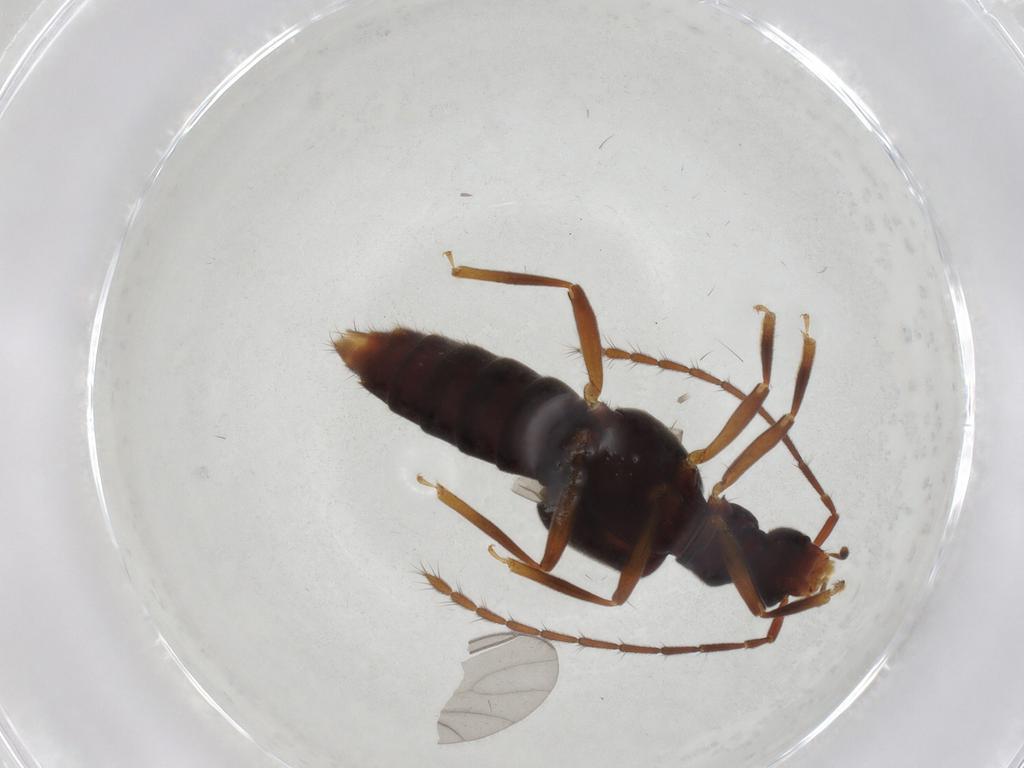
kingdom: Animalia
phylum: Arthropoda
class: Insecta
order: Coleoptera
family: Staphylinidae
